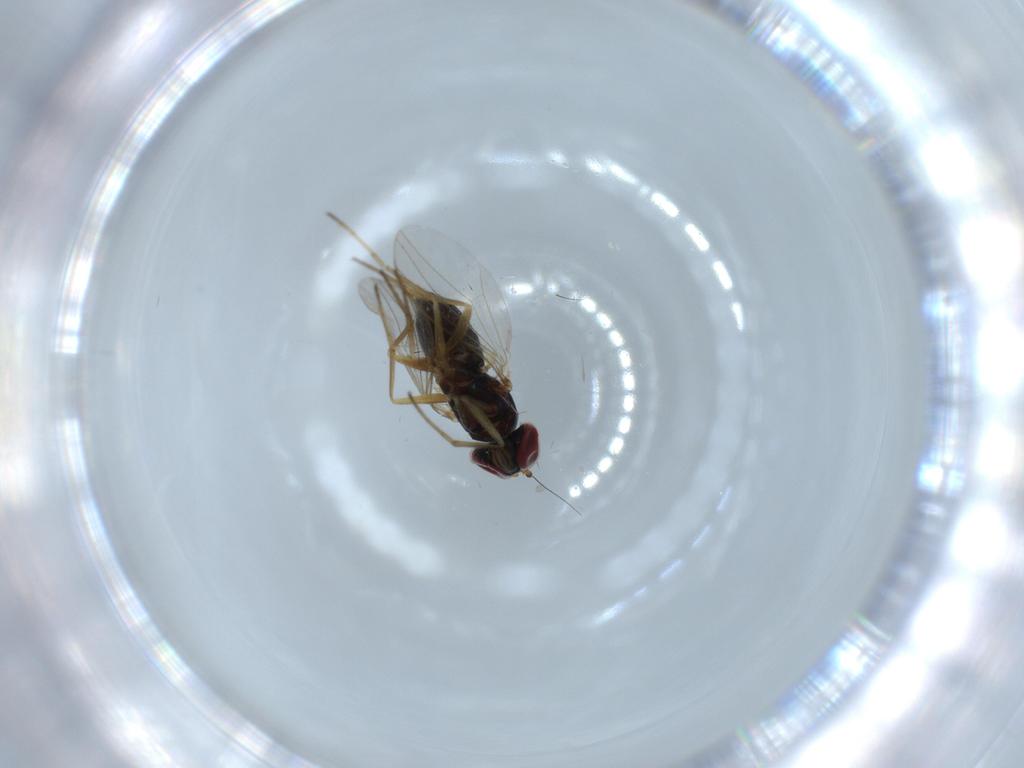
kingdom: Animalia
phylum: Arthropoda
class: Insecta
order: Diptera
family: Dolichopodidae
